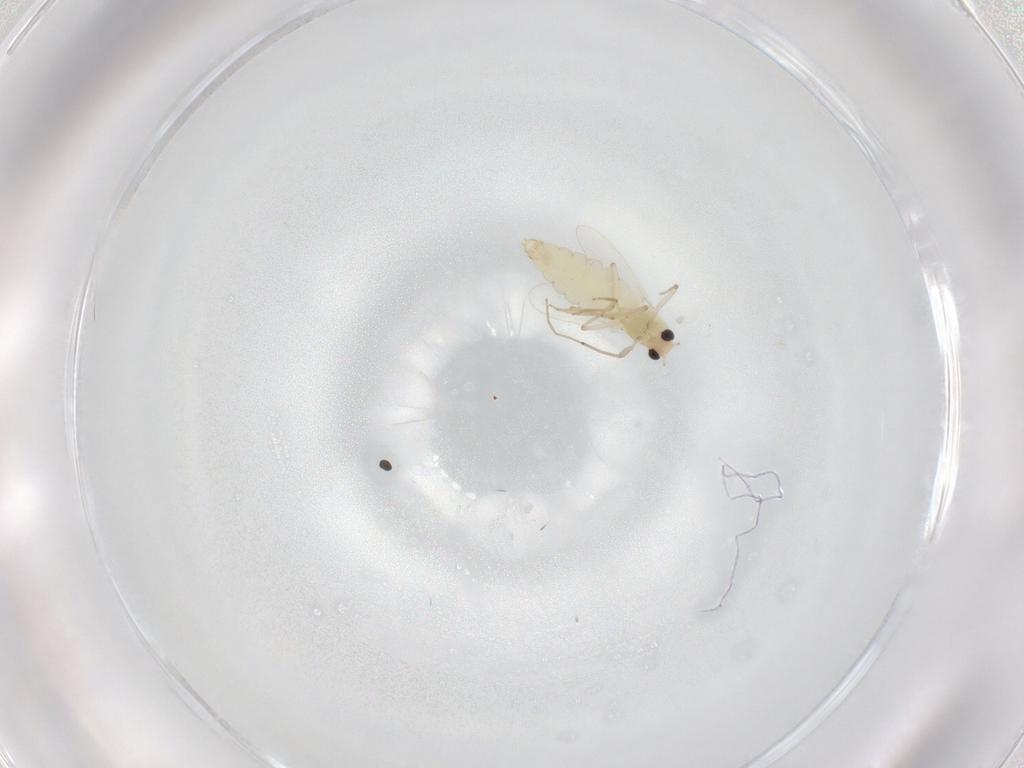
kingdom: Animalia
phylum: Arthropoda
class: Insecta
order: Diptera
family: Chironomidae
